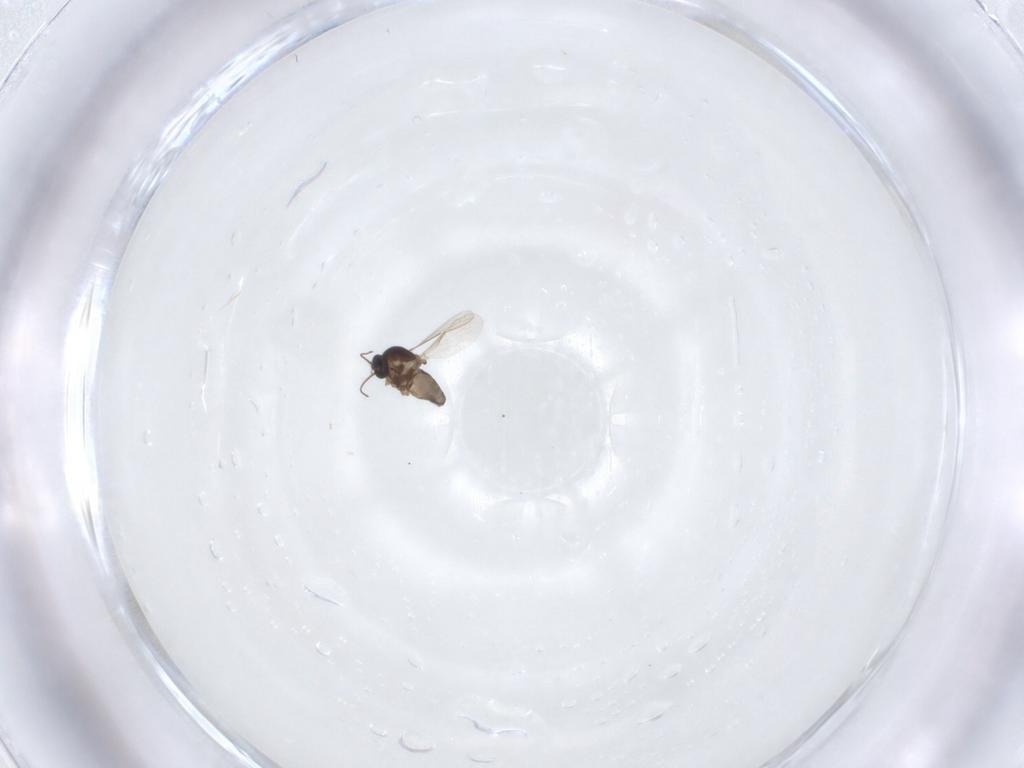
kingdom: Animalia
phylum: Arthropoda
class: Insecta
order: Diptera
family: Ceratopogonidae
